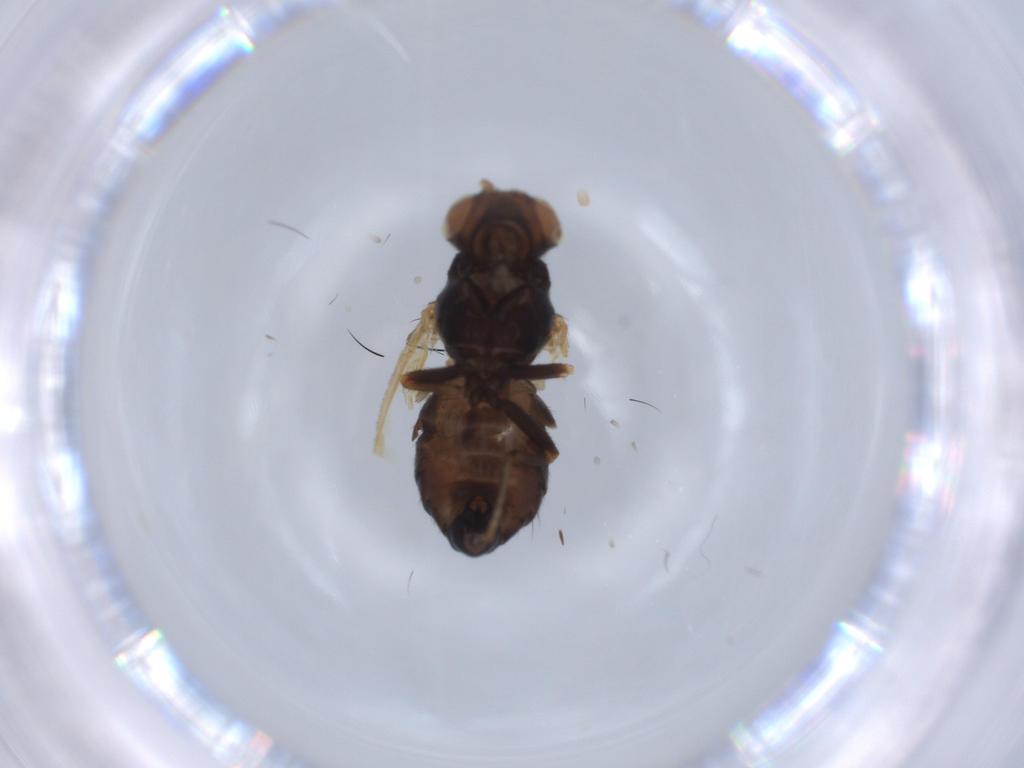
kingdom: Animalia
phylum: Arthropoda
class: Insecta
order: Diptera
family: Lauxaniidae
